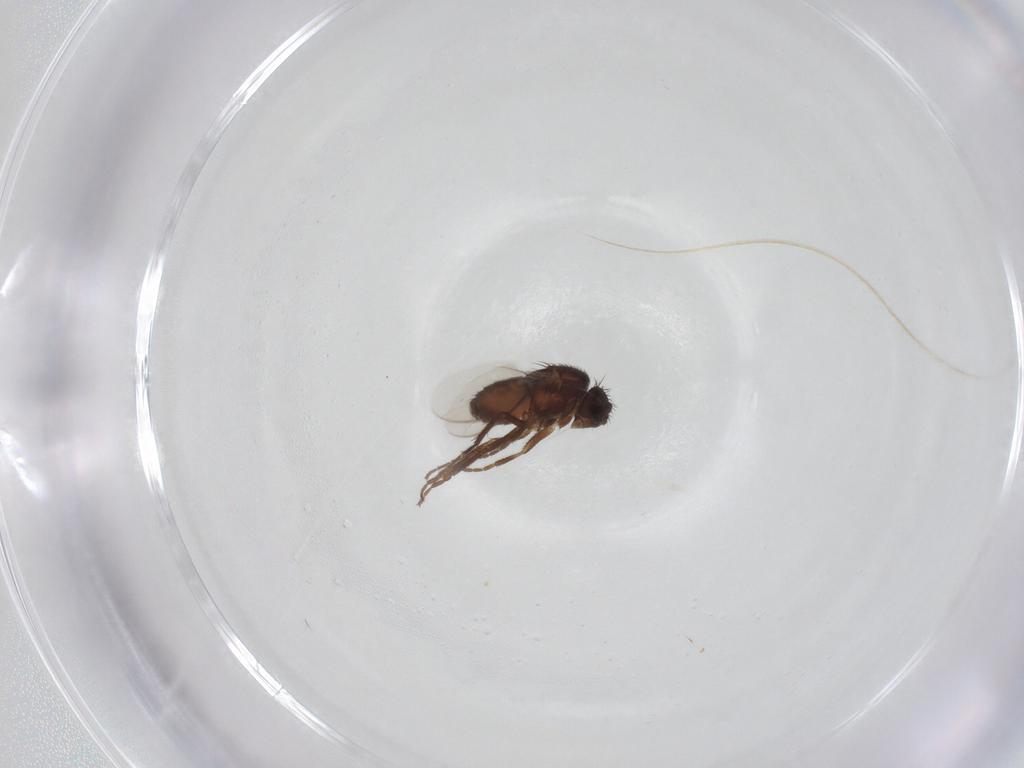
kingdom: Animalia
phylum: Arthropoda
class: Insecta
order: Diptera
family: Sphaeroceridae
